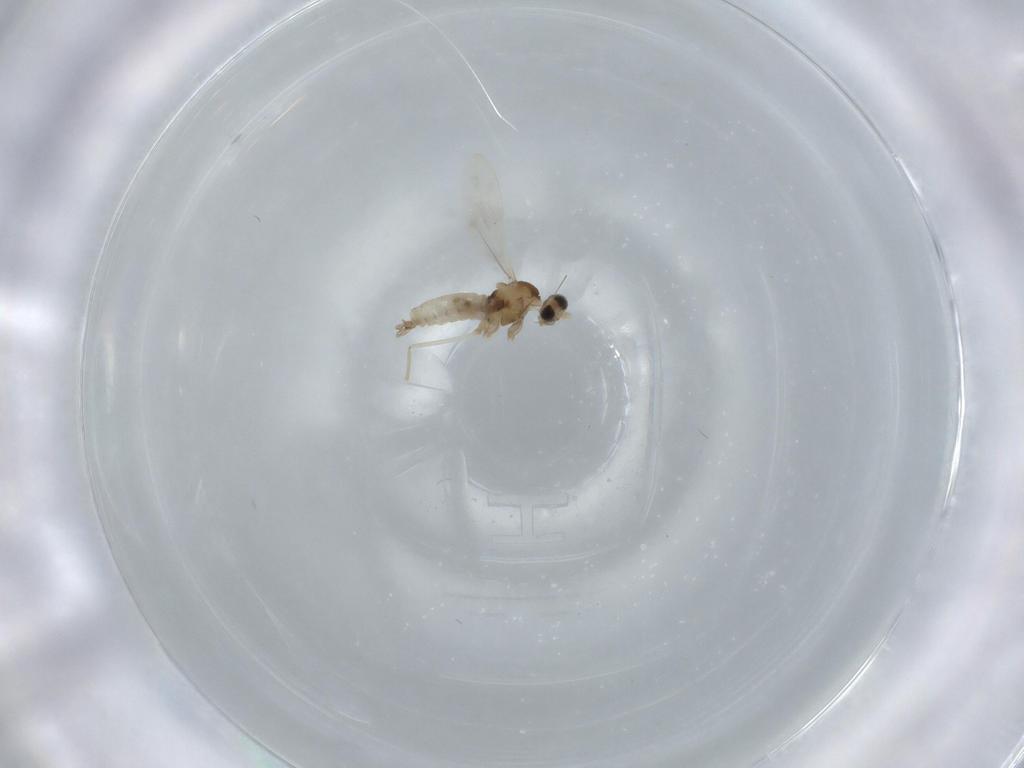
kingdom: Animalia
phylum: Arthropoda
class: Insecta
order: Diptera
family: Cecidomyiidae
